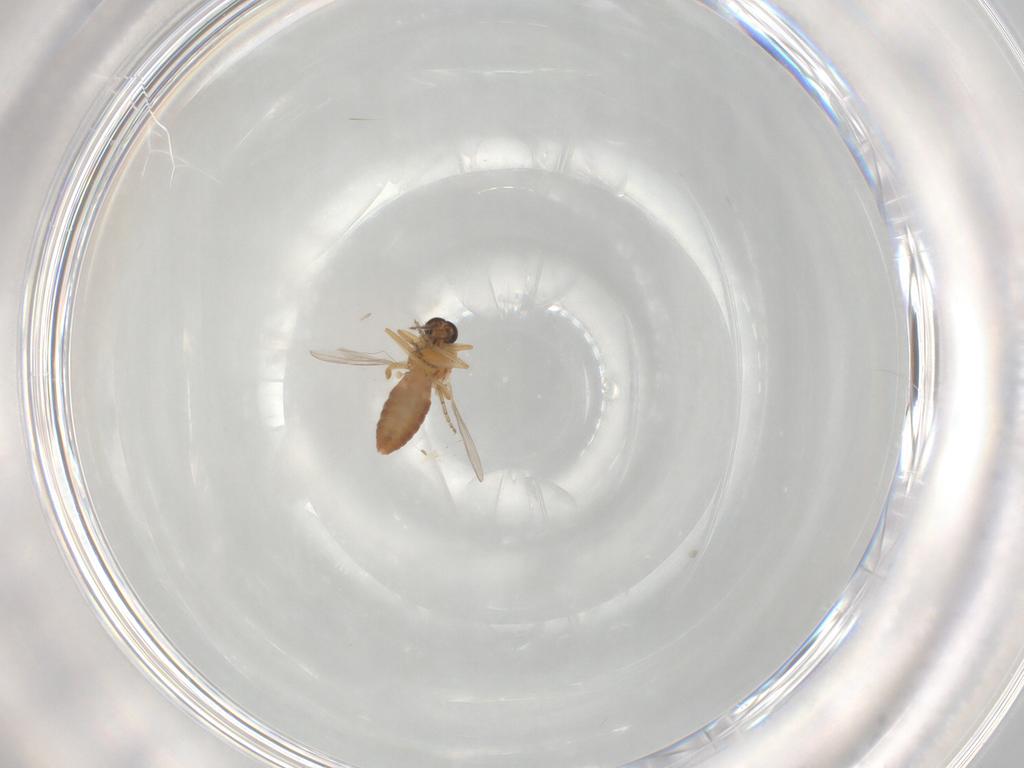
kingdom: Animalia
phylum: Arthropoda
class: Insecta
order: Diptera
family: Ceratopogonidae
